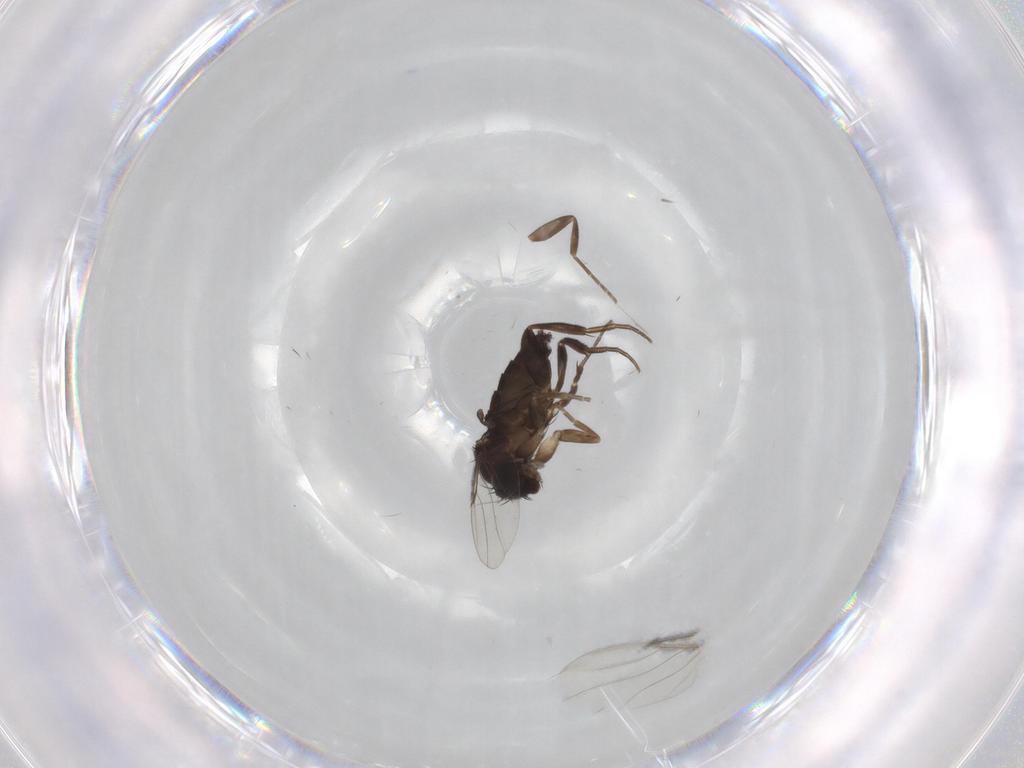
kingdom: Animalia
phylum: Arthropoda
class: Insecta
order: Diptera
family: Phoridae
